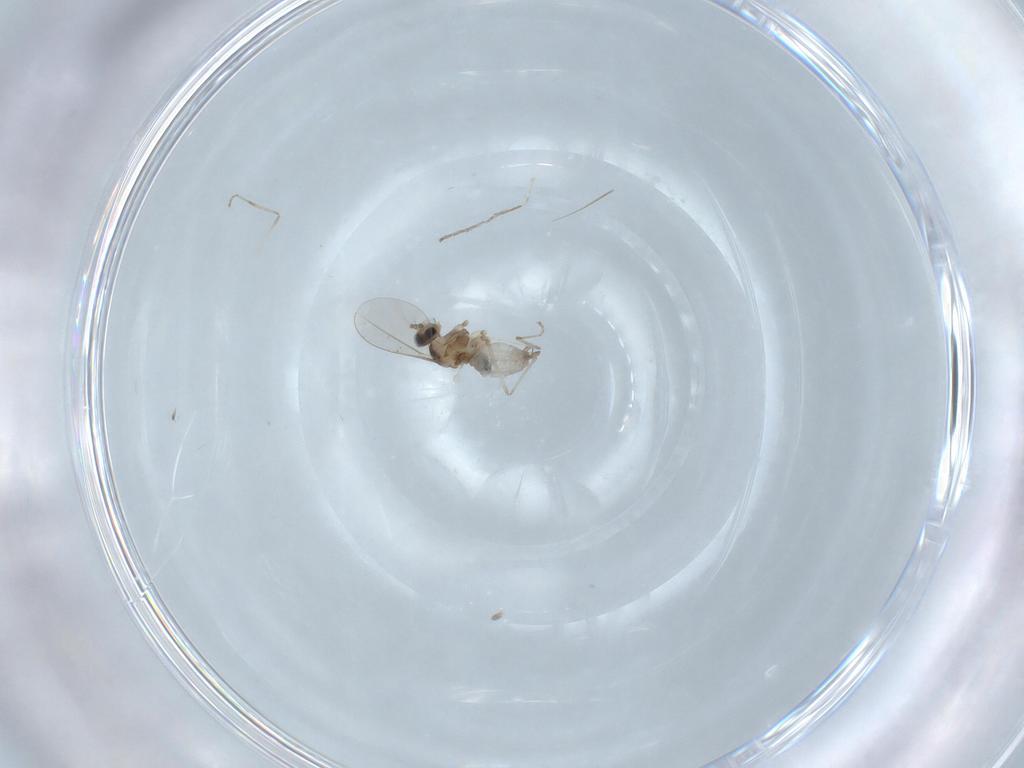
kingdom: Animalia
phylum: Arthropoda
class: Insecta
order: Diptera
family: Cecidomyiidae
